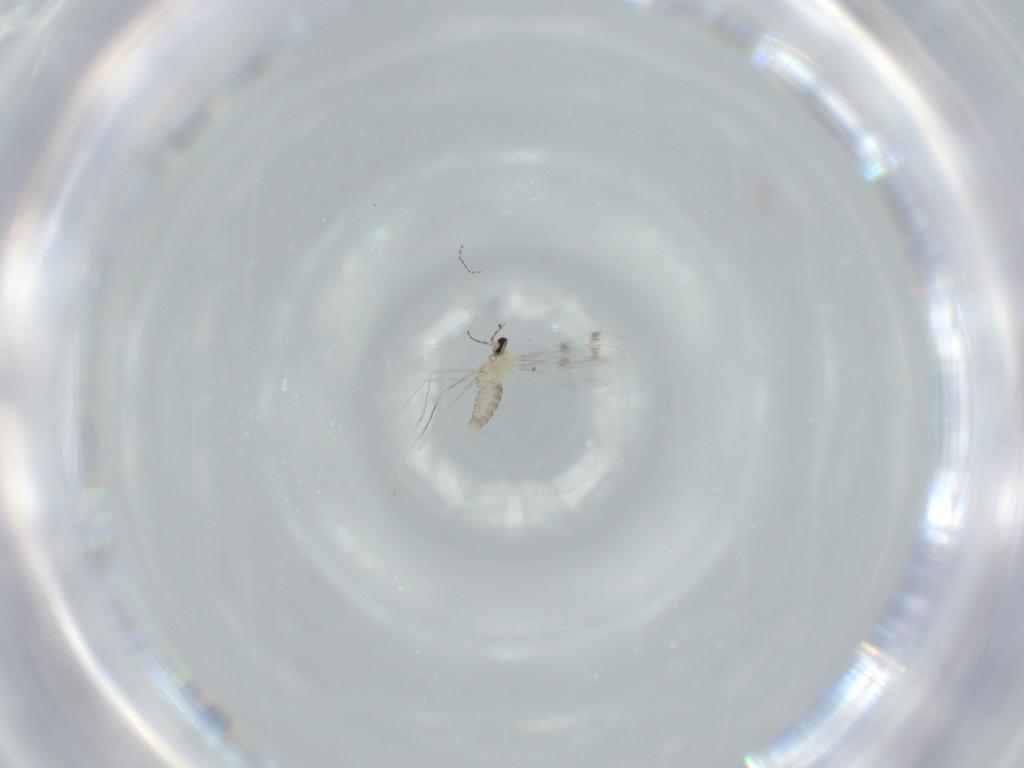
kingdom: Animalia
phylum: Arthropoda
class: Insecta
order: Diptera
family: Cecidomyiidae
